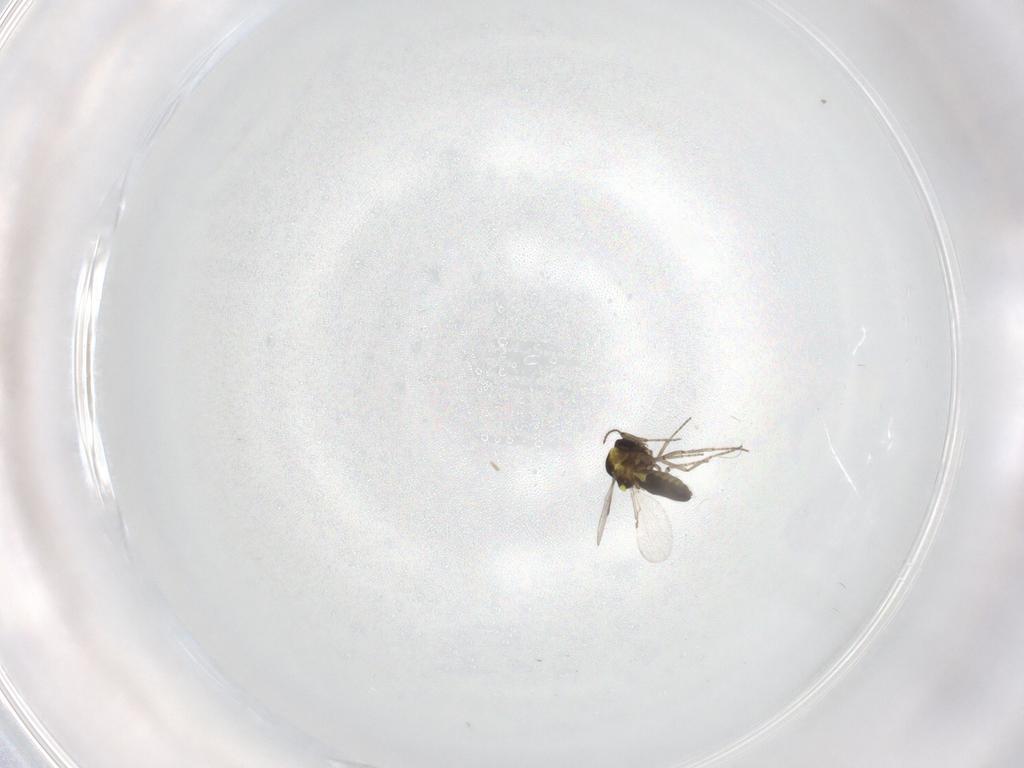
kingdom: Animalia
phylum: Arthropoda
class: Insecta
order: Diptera
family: Ceratopogonidae
